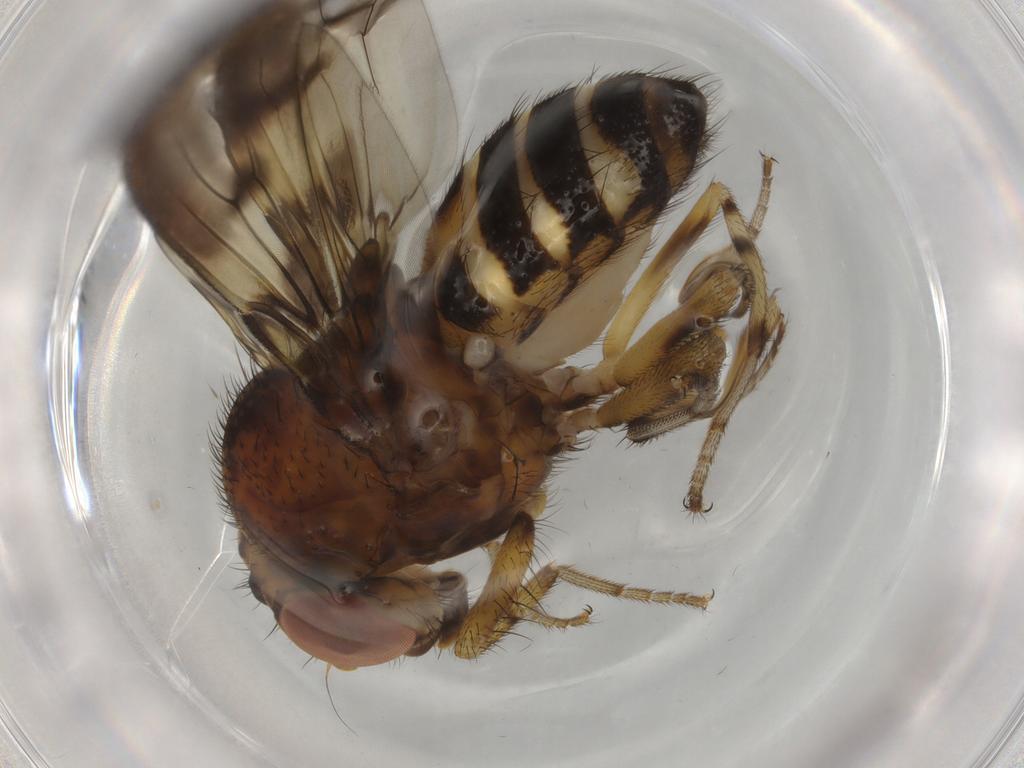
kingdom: Animalia
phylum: Arthropoda
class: Insecta
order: Diptera
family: Drosophilidae
